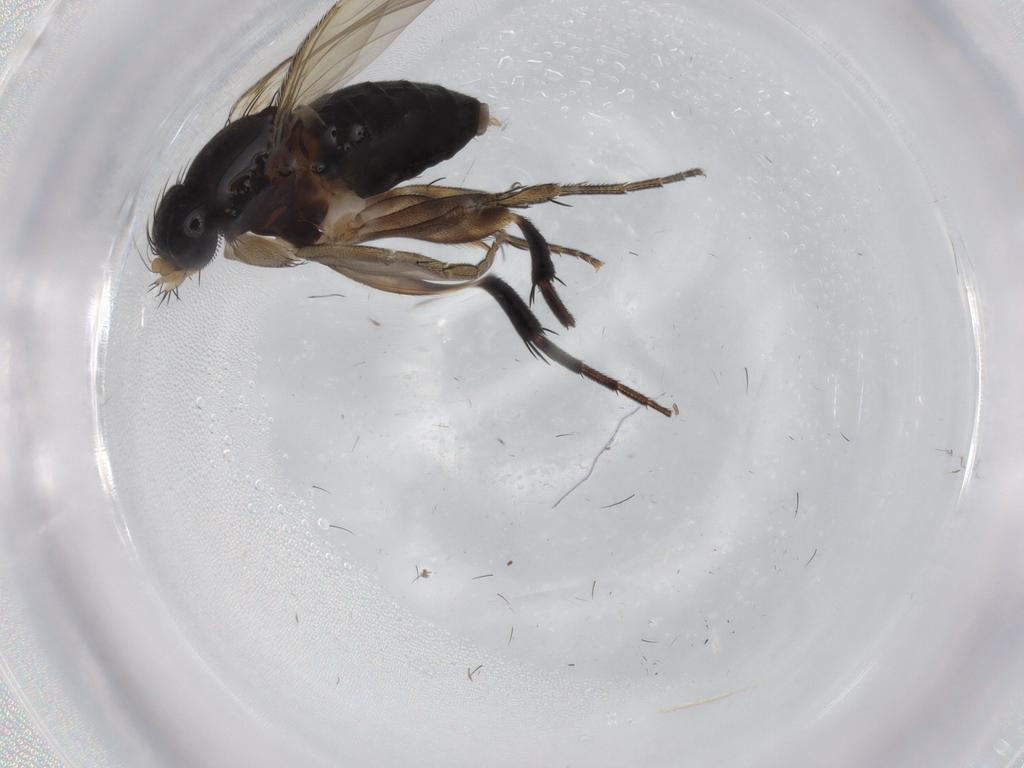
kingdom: Animalia
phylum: Arthropoda
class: Insecta
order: Diptera
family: Phoridae
